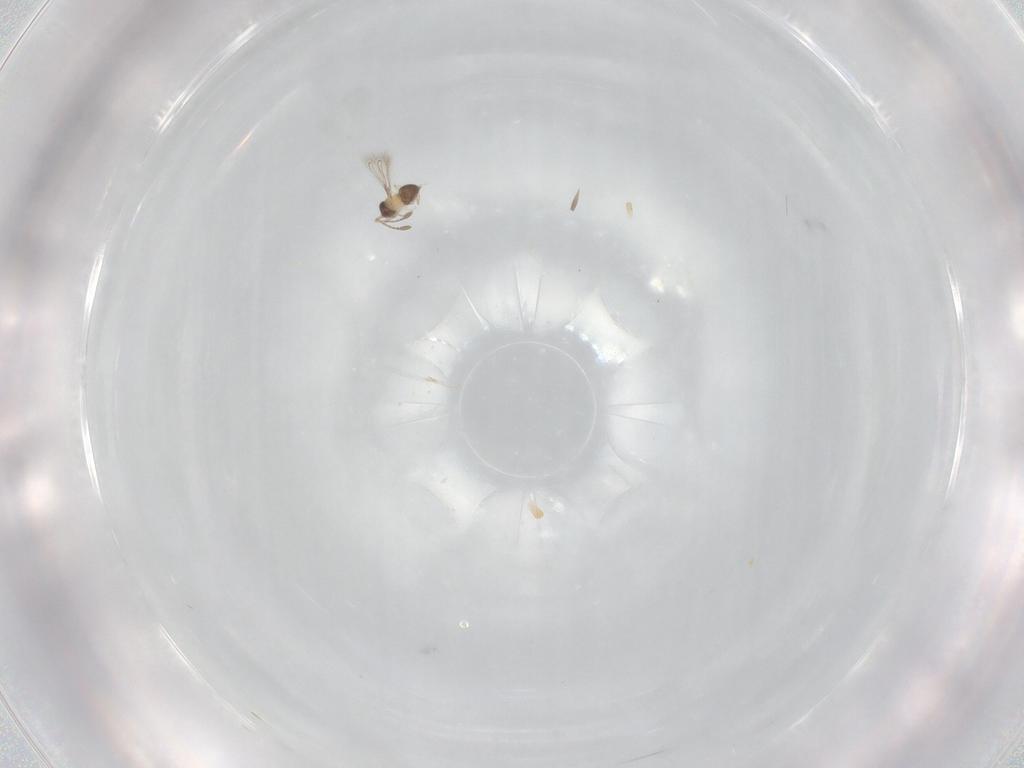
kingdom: Animalia
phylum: Arthropoda
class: Insecta
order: Hymenoptera
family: Mymaridae
